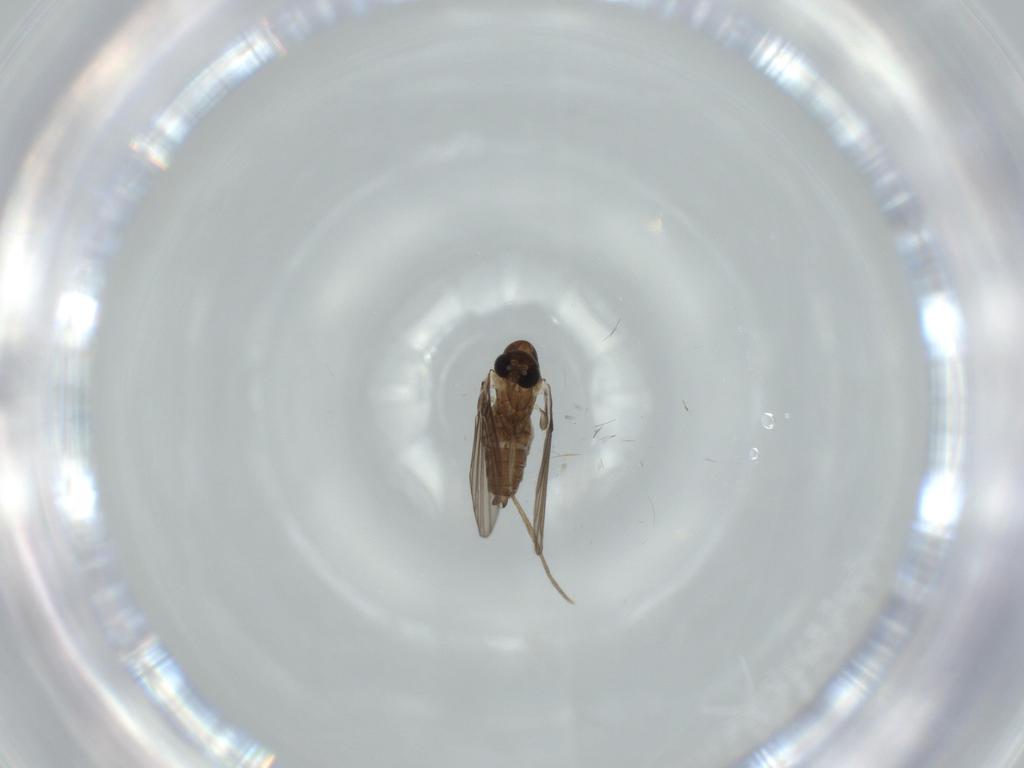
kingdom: Animalia
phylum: Arthropoda
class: Insecta
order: Diptera
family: Psychodidae
